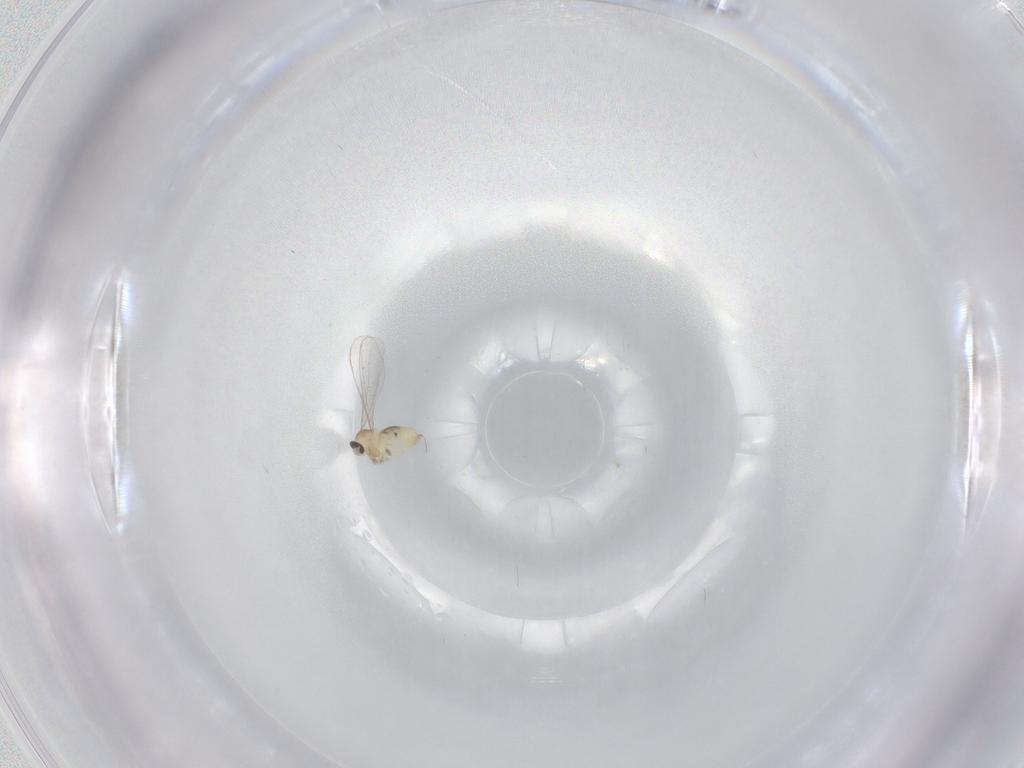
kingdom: Animalia
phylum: Arthropoda
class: Insecta
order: Diptera
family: Cecidomyiidae
